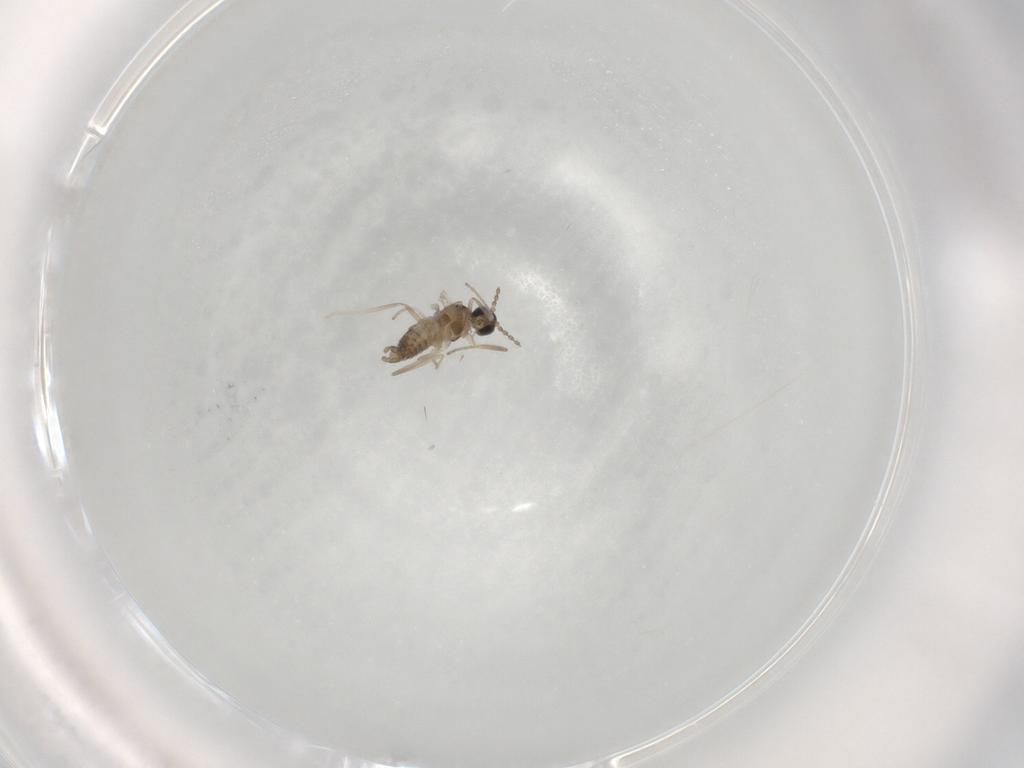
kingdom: Animalia
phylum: Arthropoda
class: Insecta
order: Diptera
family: Cecidomyiidae
